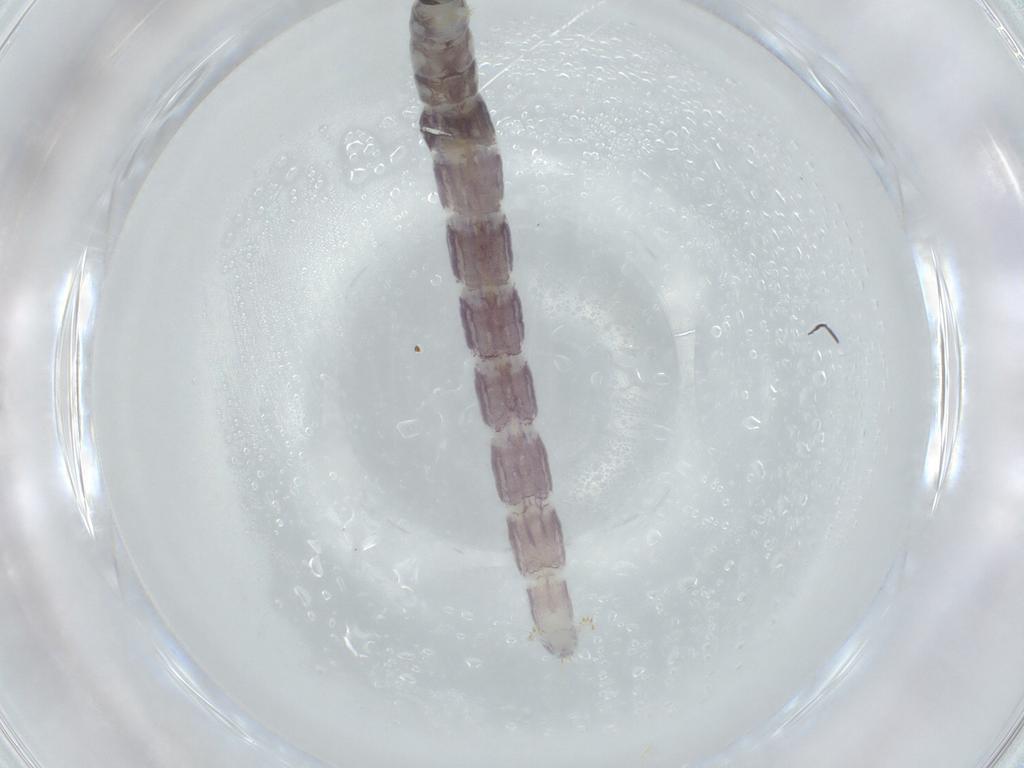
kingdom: Animalia
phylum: Arthropoda
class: Insecta
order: Diptera
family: Chironomidae
